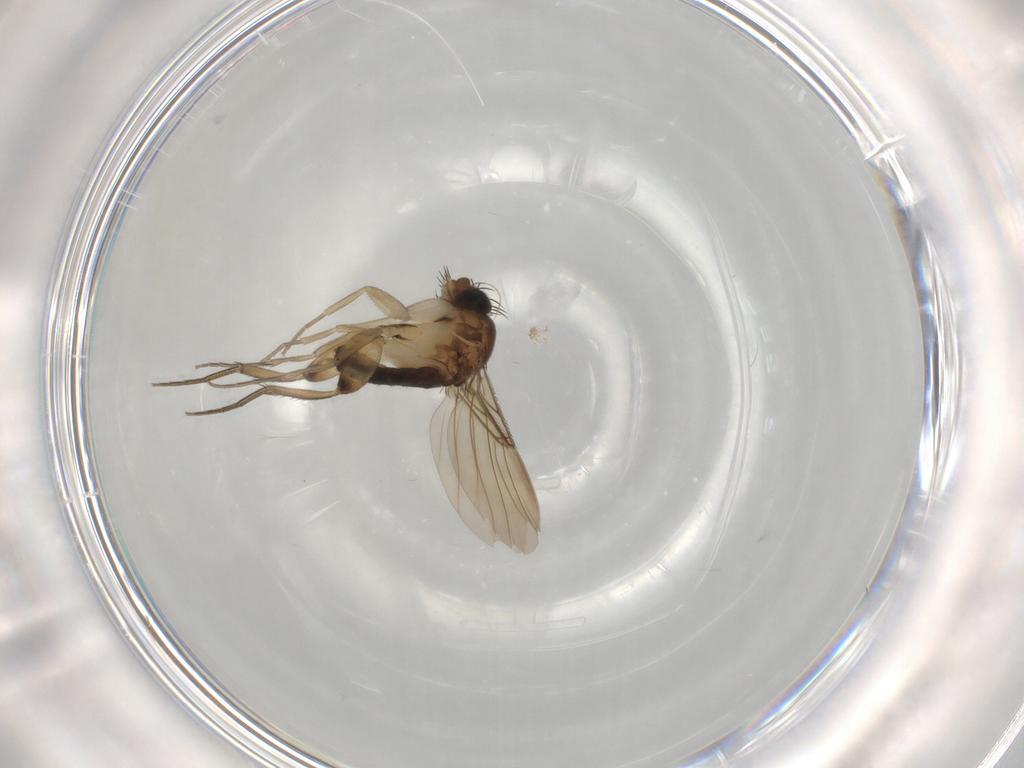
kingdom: Animalia
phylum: Arthropoda
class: Insecta
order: Diptera
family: Phoridae
